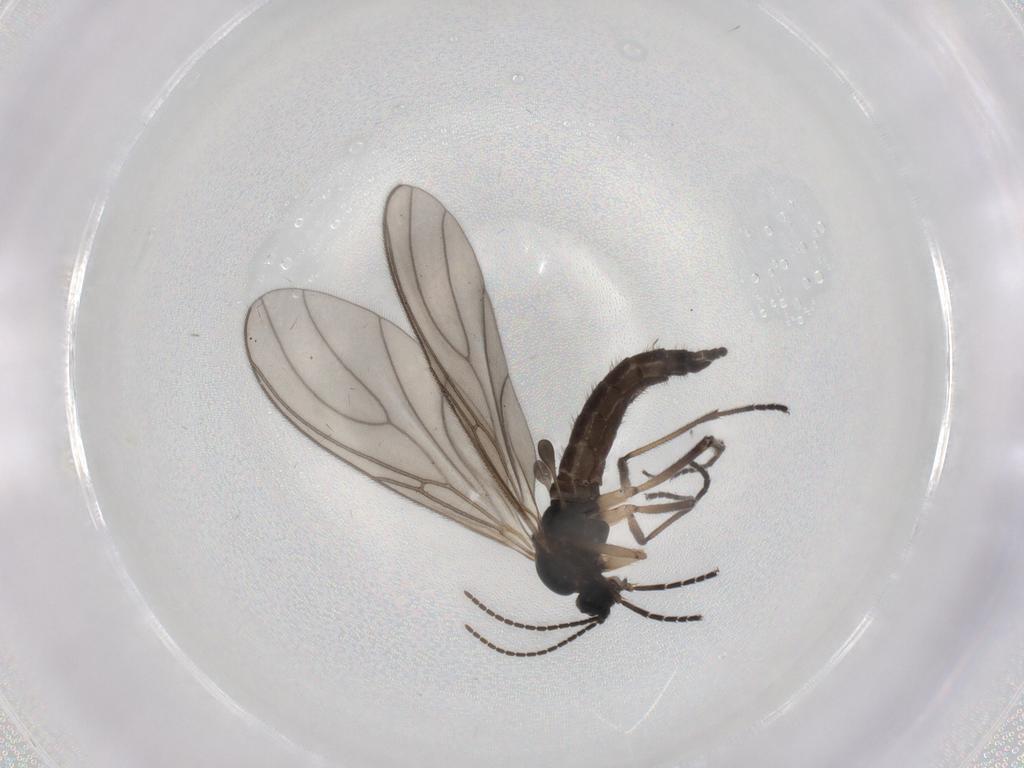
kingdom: Animalia
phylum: Arthropoda
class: Insecta
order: Diptera
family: Sciaridae
